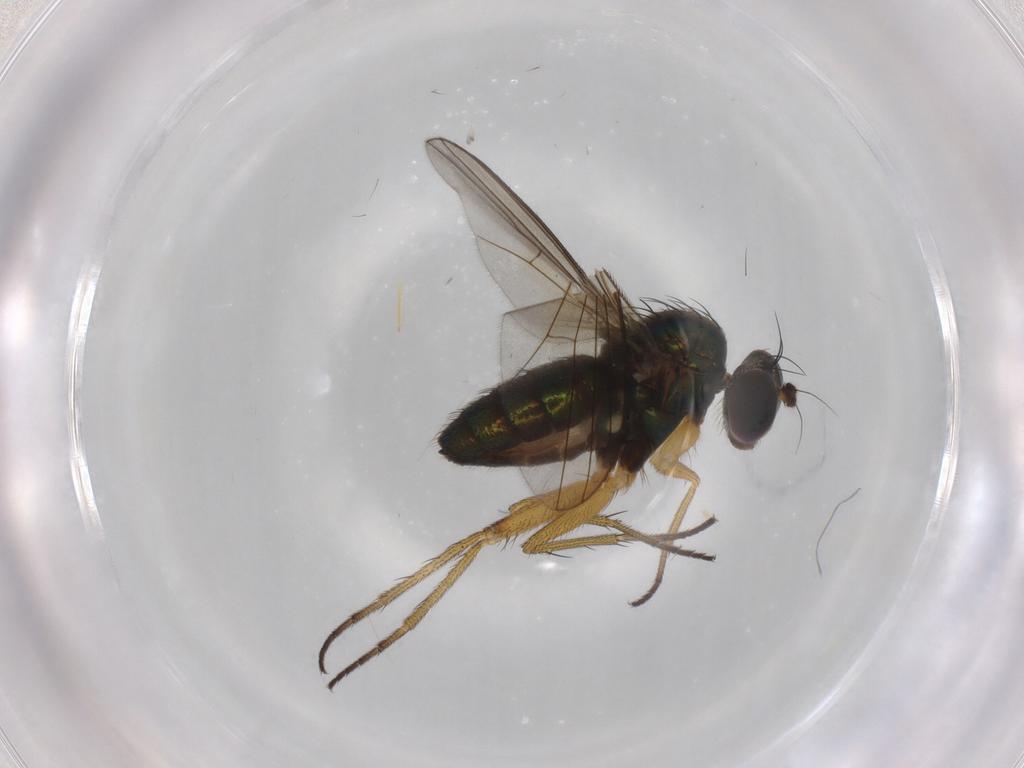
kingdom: Animalia
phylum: Arthropoda
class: Insecta
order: Diptera
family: Dolichopodidae
